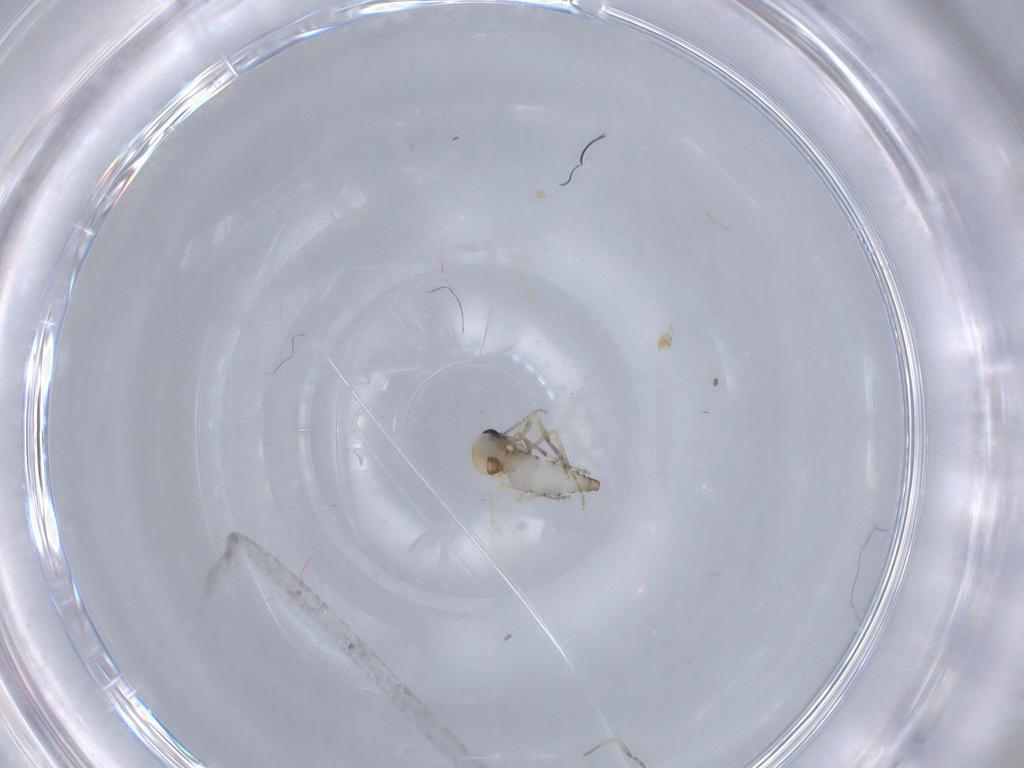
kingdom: Animalia
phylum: Arthropoda
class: Insecta
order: Diptera
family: Ceratopogonidae
